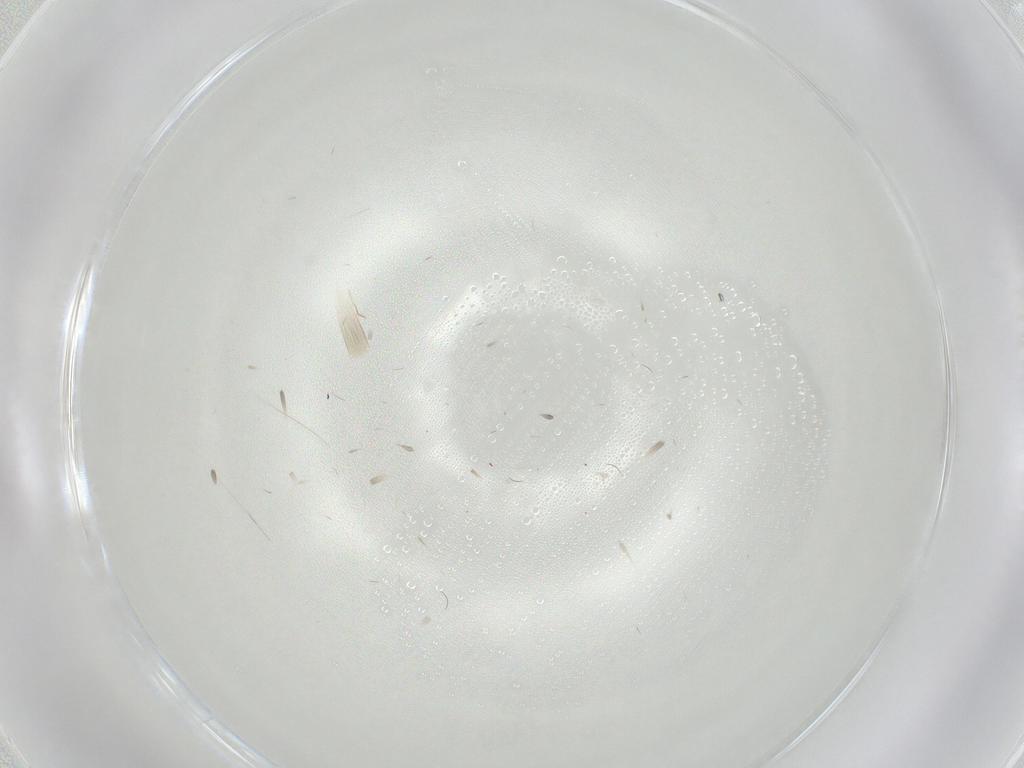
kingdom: Animalia
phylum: Arthropoda
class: Insecta
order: Hemiptera
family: Pseudococcidae
